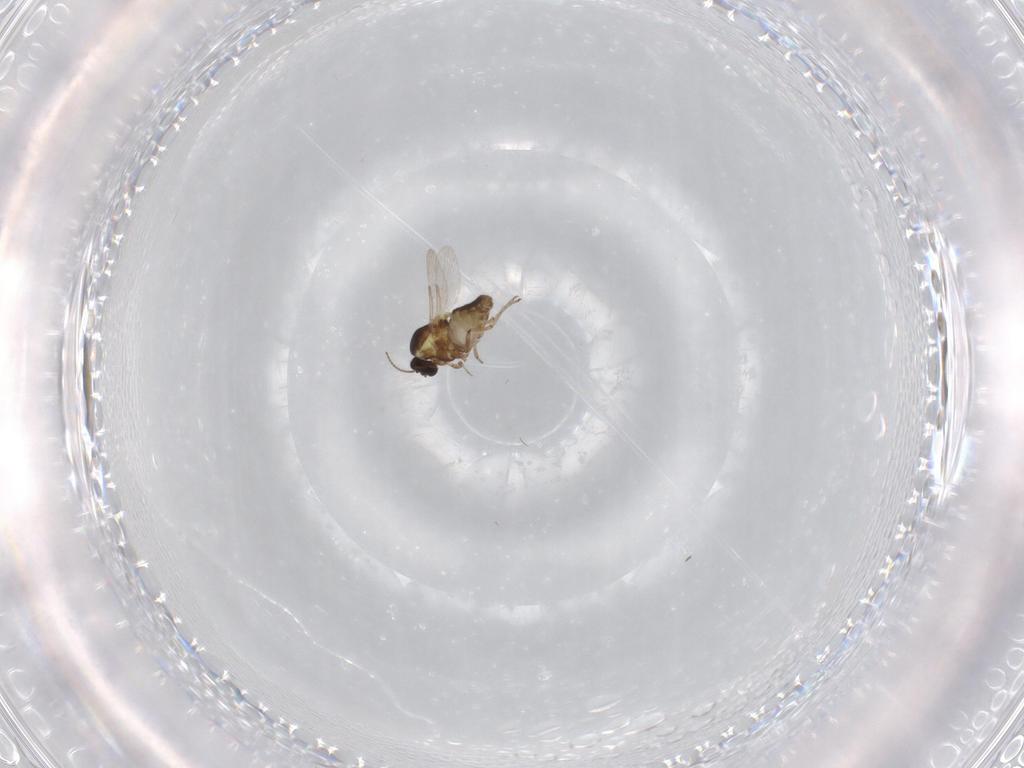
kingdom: Animalia
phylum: Arthropoda
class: Insecta
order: Diptera
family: Ceratopogonidae
